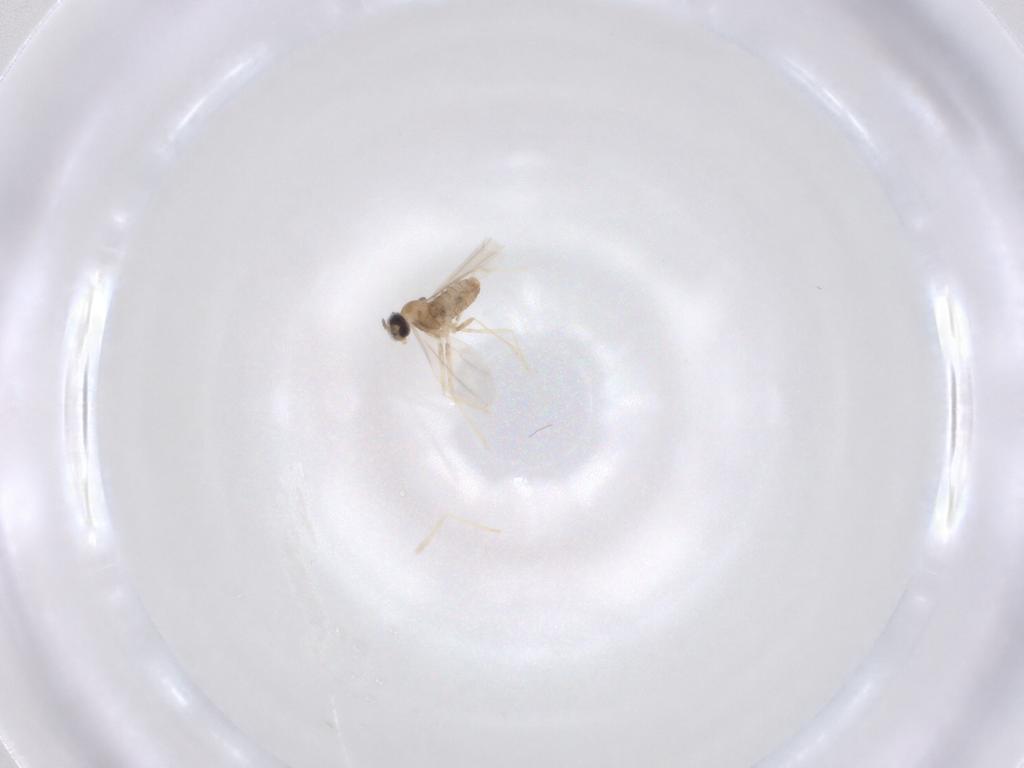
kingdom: Animalia
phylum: Arthropoda
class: Insecta
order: Diptera
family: Cecidomyiidae
